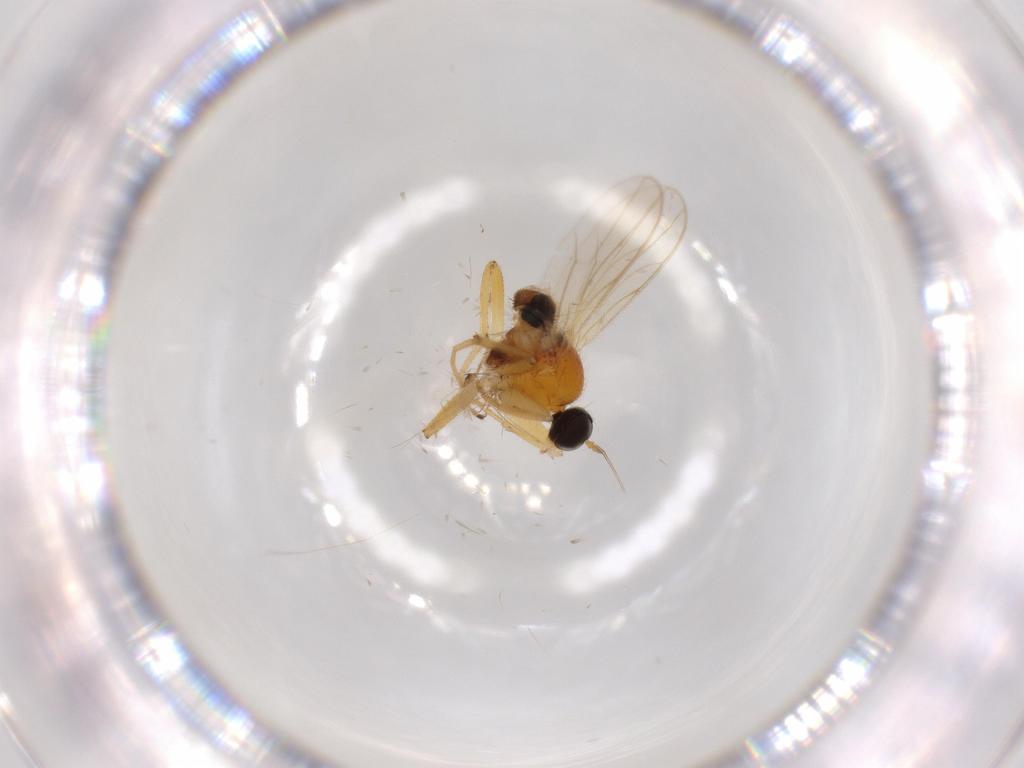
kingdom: Animalia
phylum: Arthropoda
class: Insecta
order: Diptera
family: Hybotidae
